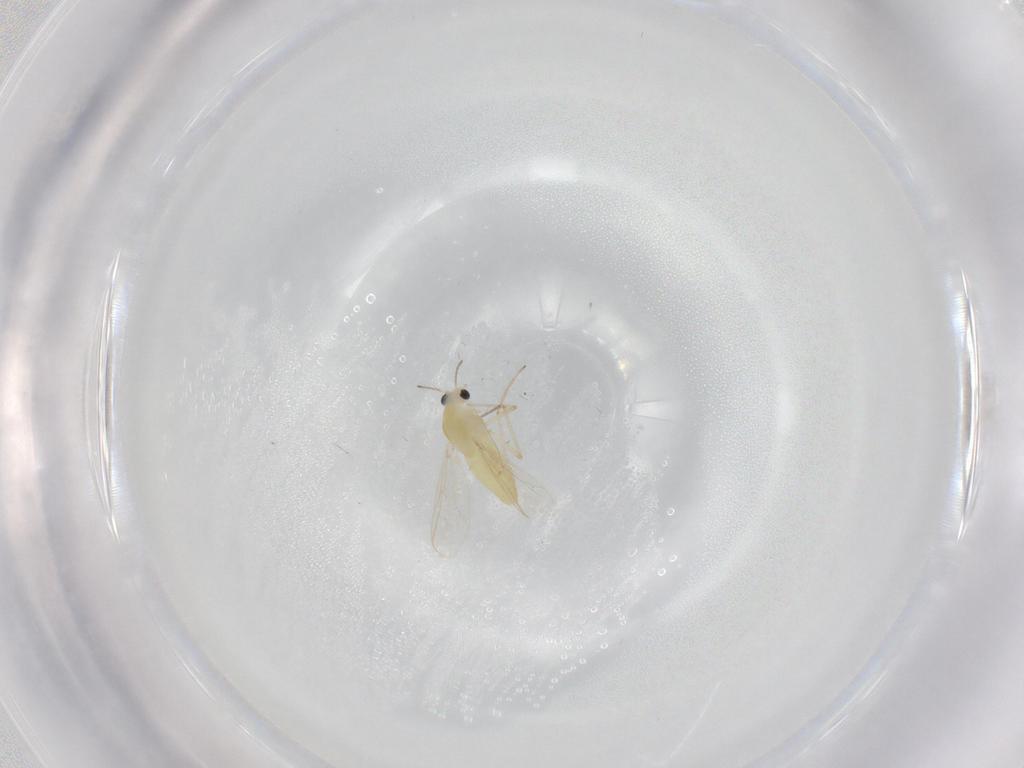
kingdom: Animalia
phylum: Arthropoda
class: Insecta
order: Diptera
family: Chironomidae
